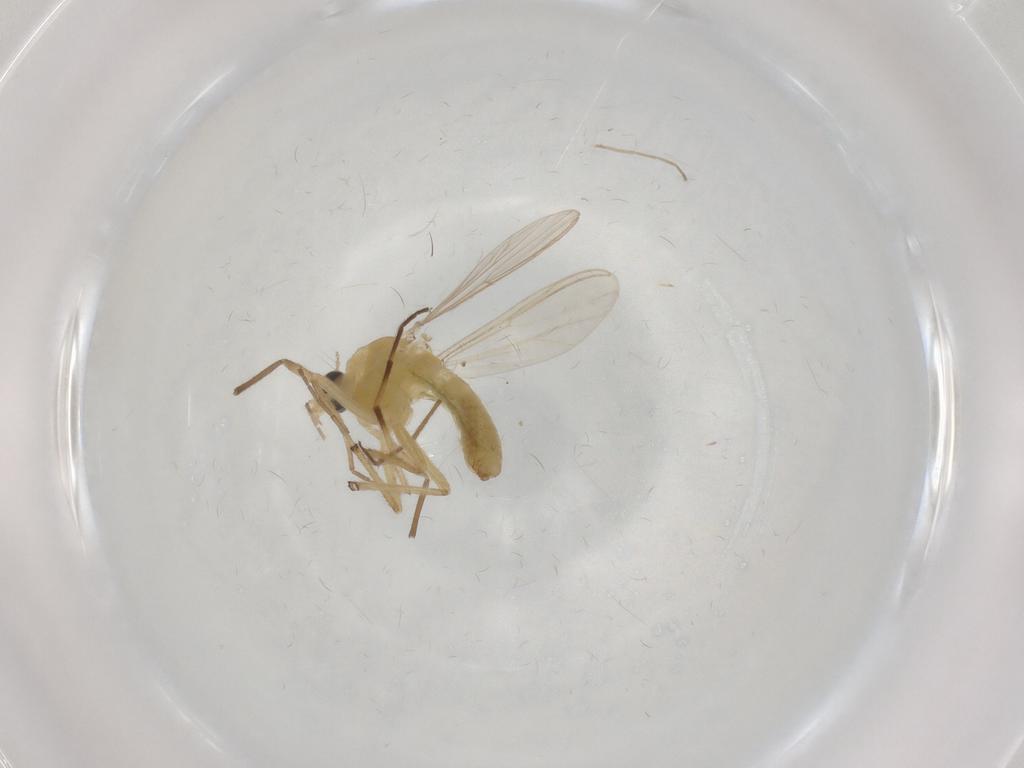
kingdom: Animalia
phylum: Arthropoda
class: Insecta
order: Diptera
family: Chironomidae
